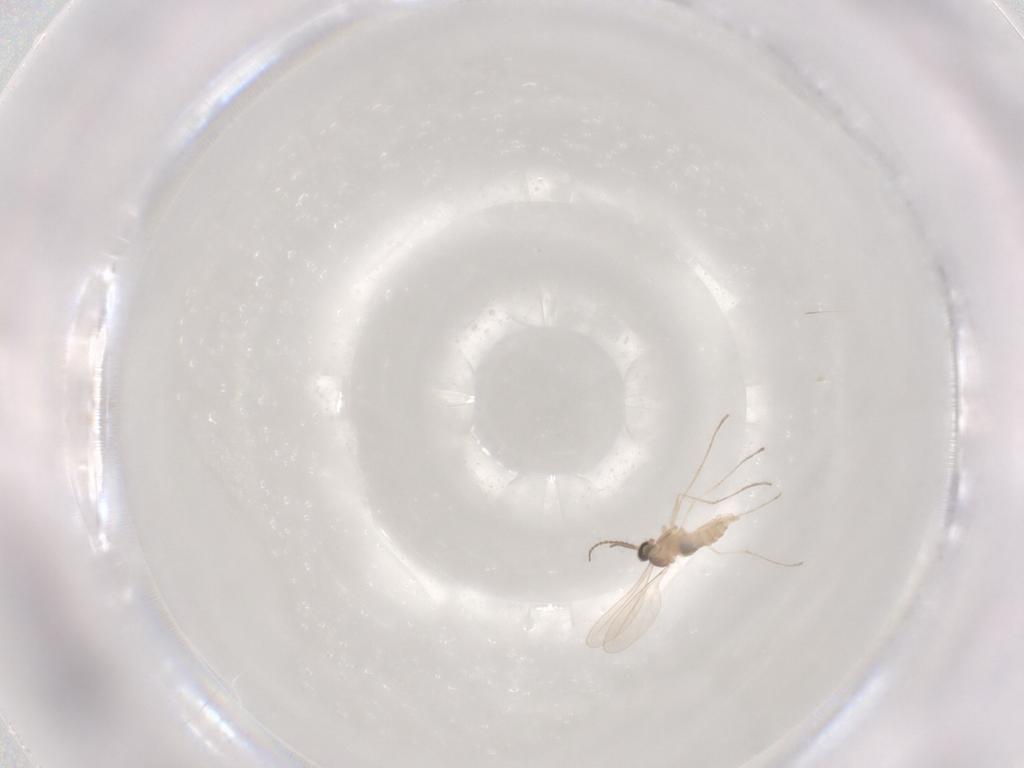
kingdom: Animalia
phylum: Arthropoda
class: Insecta
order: Diptera
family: Cecidomyiidae
